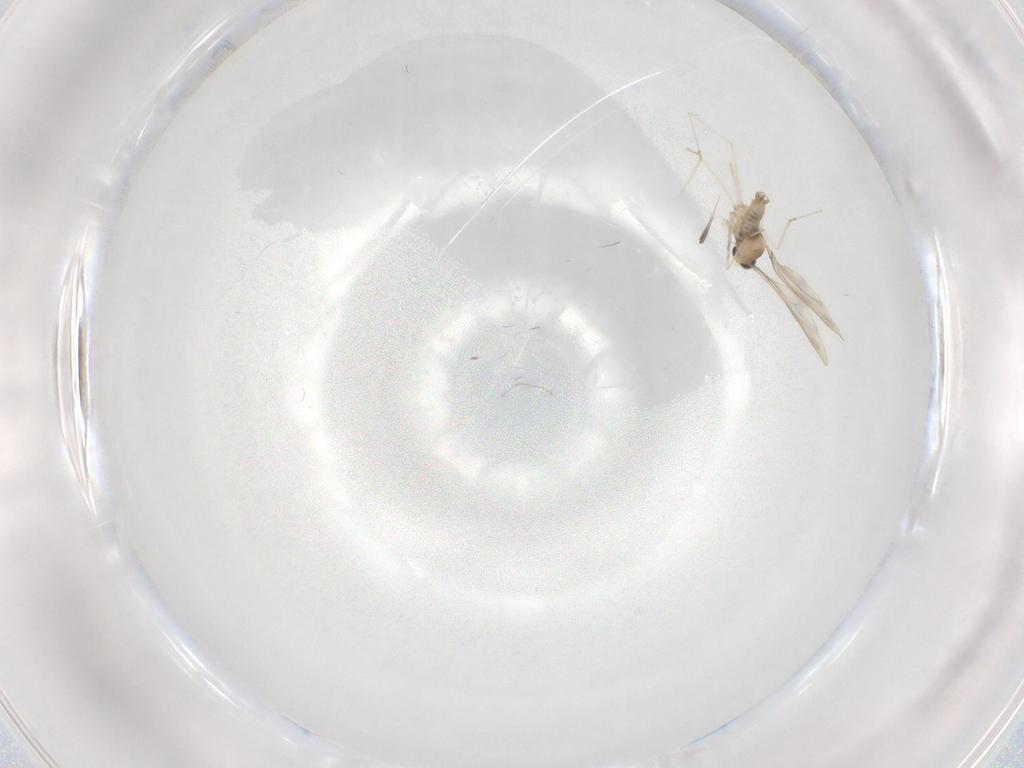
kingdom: Animalia
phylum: Arthropoda
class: Insecta
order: Diptera
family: Cecidomyiidae
